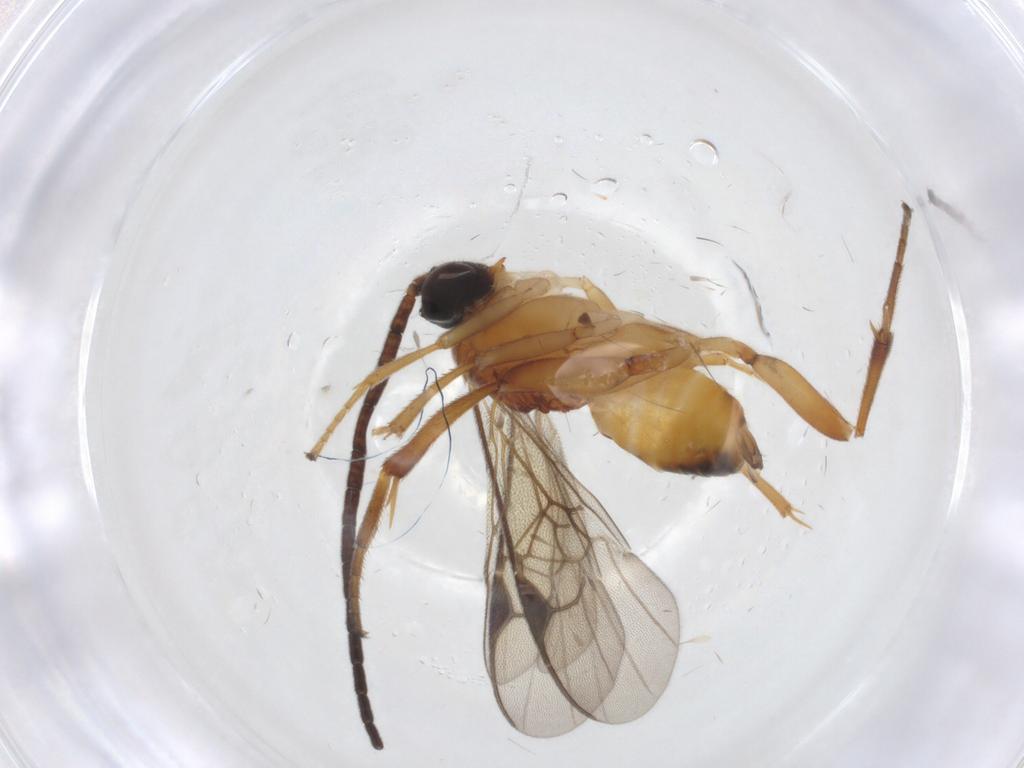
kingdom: Animalia
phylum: Arthropoda
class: Insecta
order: Hymenoptera
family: Braconidae
